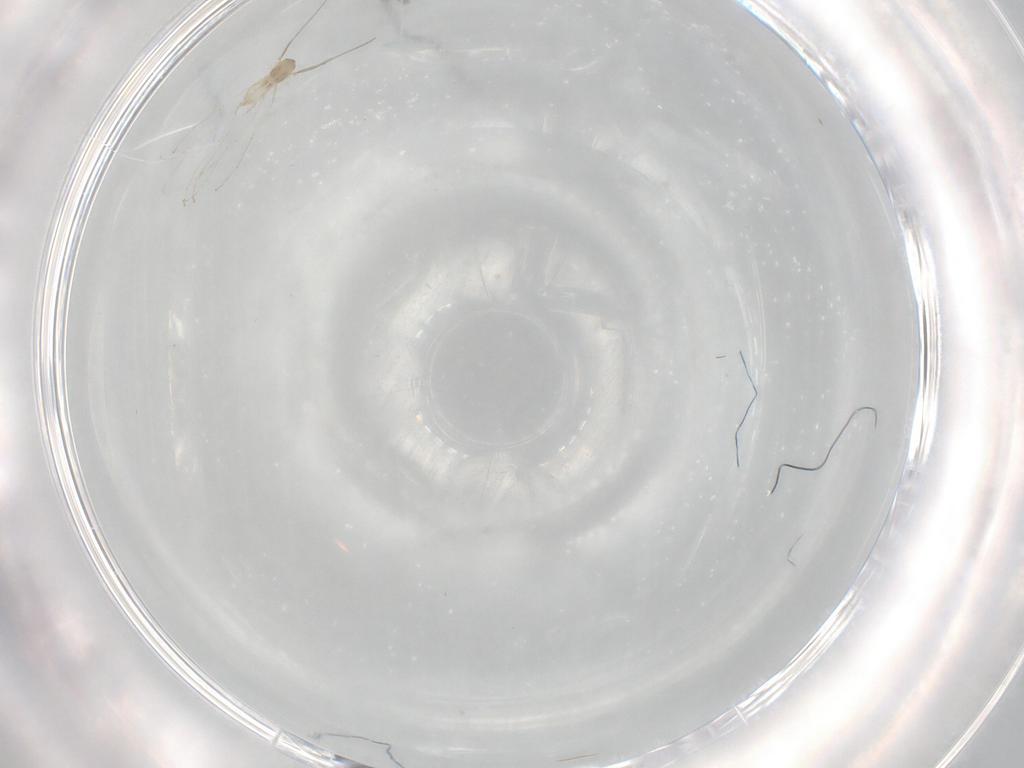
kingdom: Animalia
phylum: Arthropoda
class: Insecta
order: Diptera
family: Cecidomyiidae
